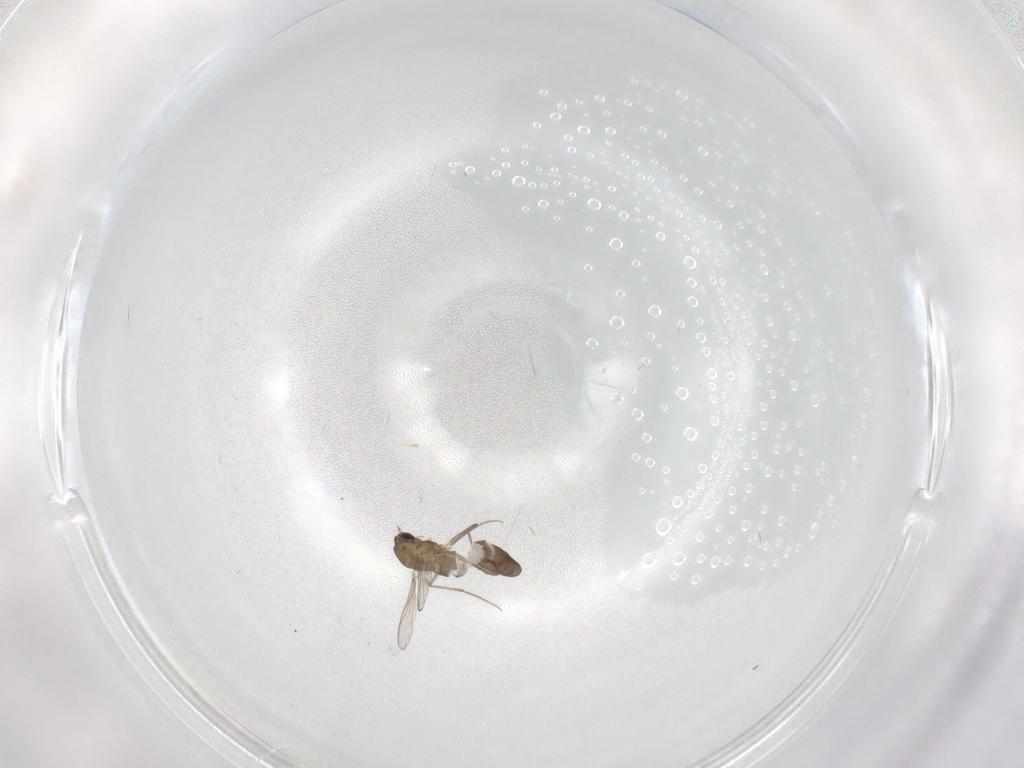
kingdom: Animalia
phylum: Arthropoda
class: Insecta
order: Diptera
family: Chironomidae
